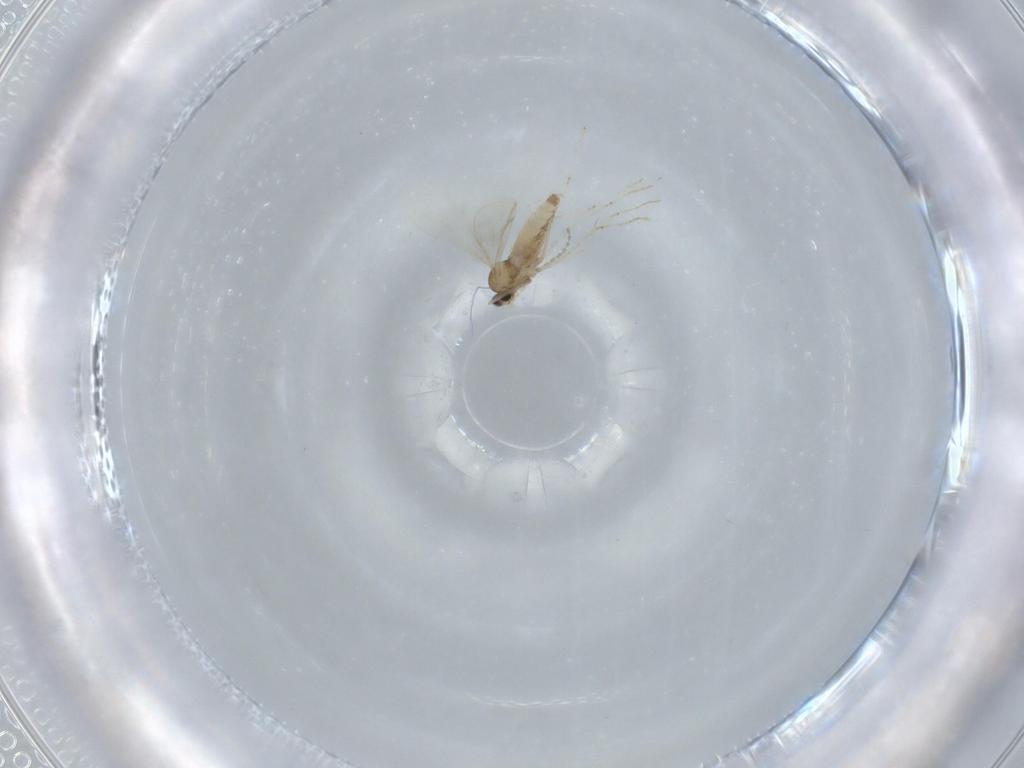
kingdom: Animalia
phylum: Arthropoda
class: Insecta
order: Diptera
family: Cecidomyiidae
